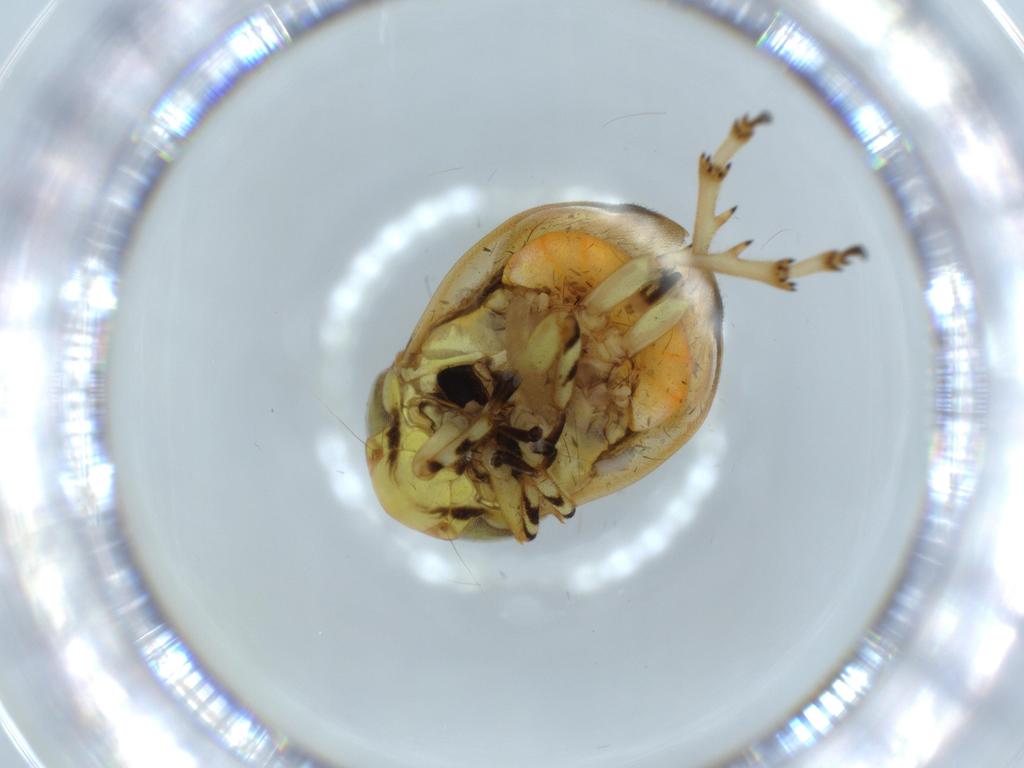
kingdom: Animalia
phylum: Arthropoda
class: Insecta
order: Hemiptera
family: Clastopteridae
